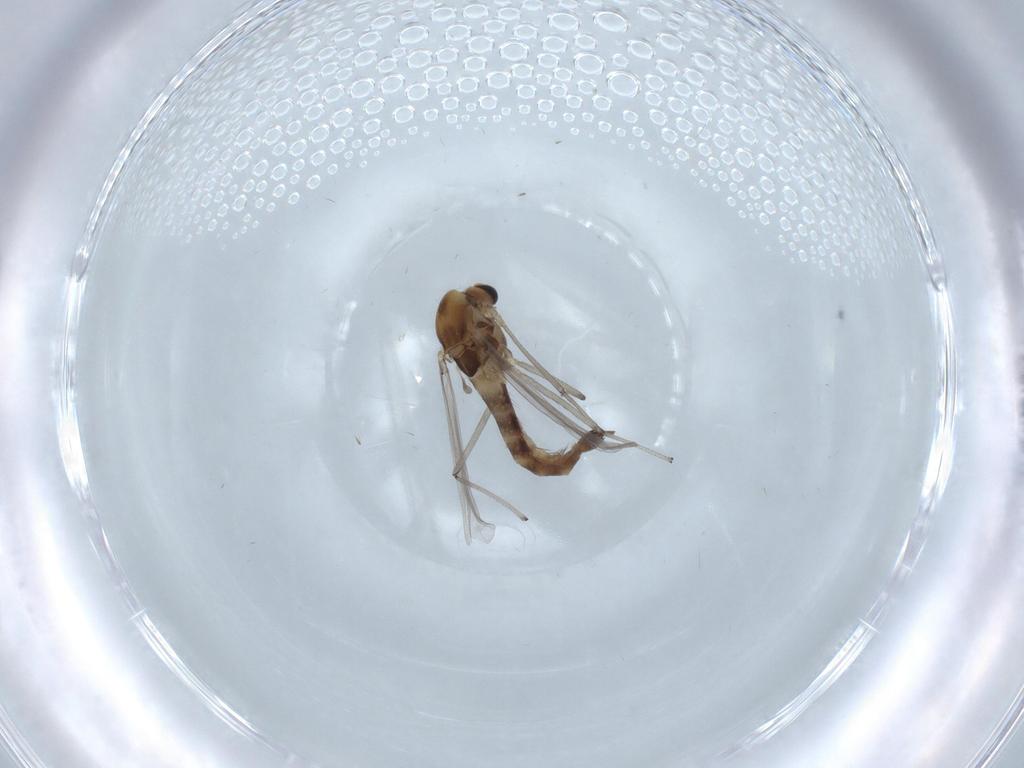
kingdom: Animalia
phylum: Arthropoda
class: Insecta
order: Diptera
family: Chironomidae
